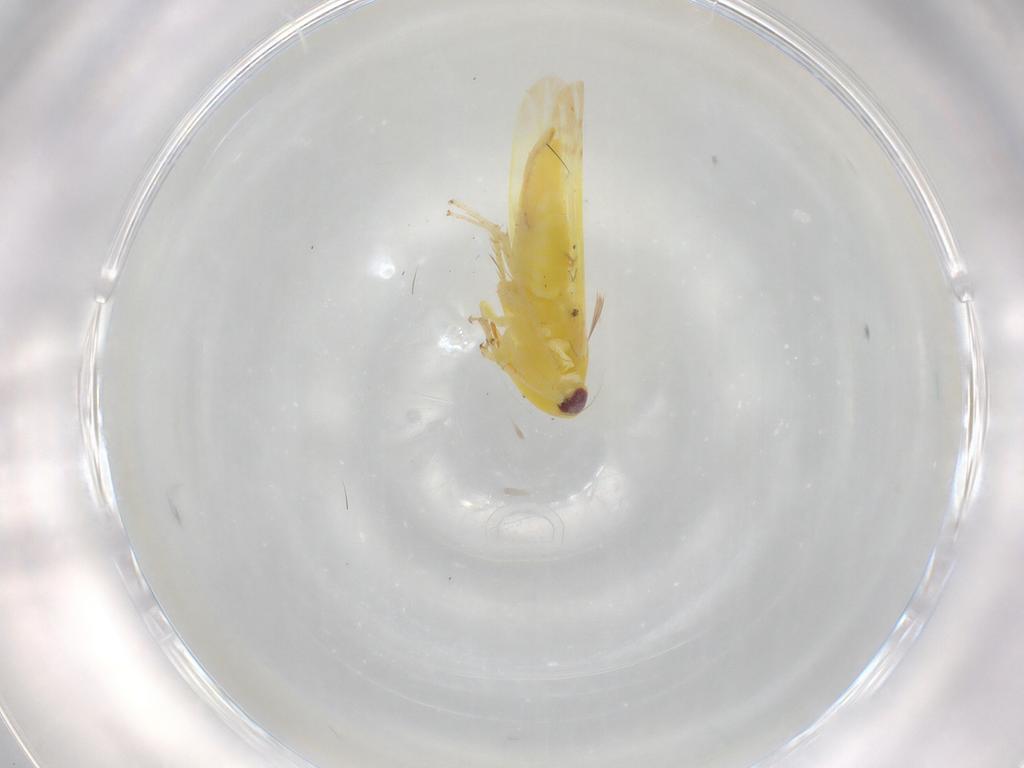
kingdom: Animalia
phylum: Arthropoda
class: Insecta
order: Hemiptera
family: Cicadellidae
